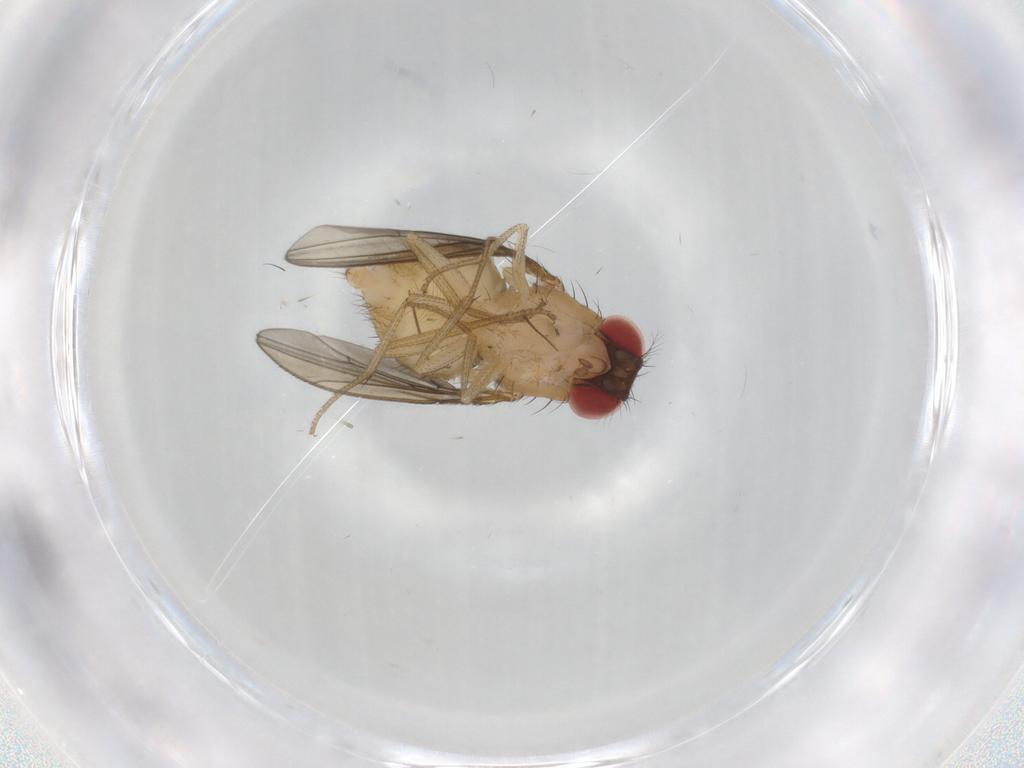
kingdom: Animalia
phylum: Arthropoda
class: Insecta
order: Diptera
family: Drosophilidae
